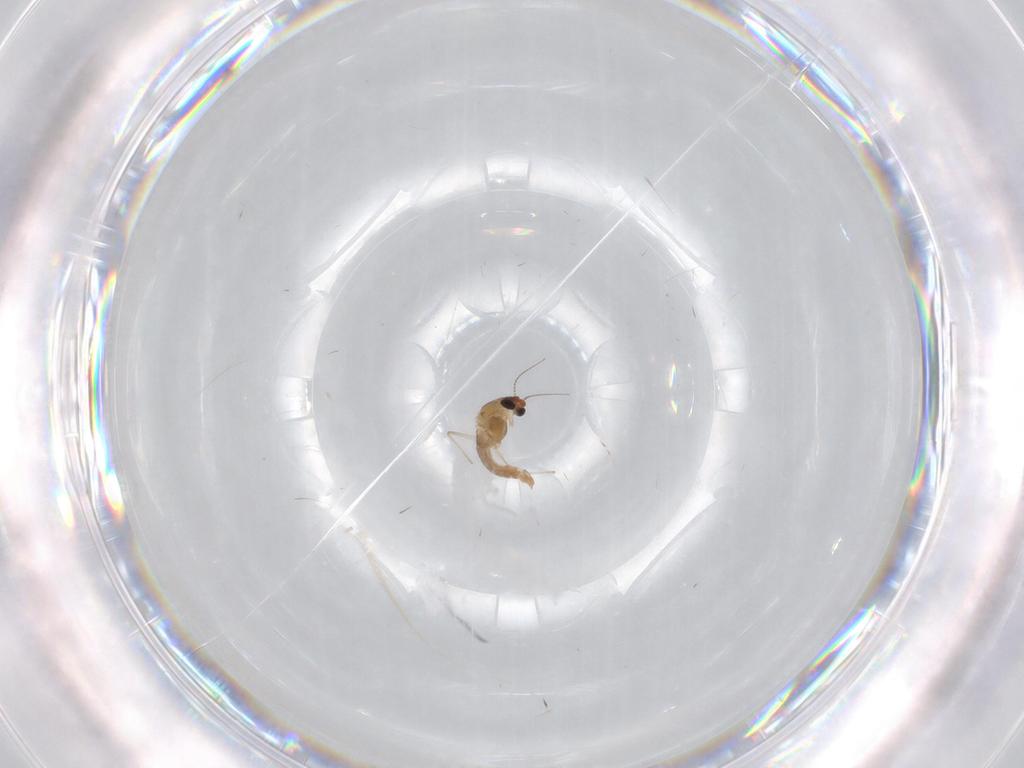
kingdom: Animalia
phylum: Arthropoda
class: Insecta
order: Diptera
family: Chironomidae
